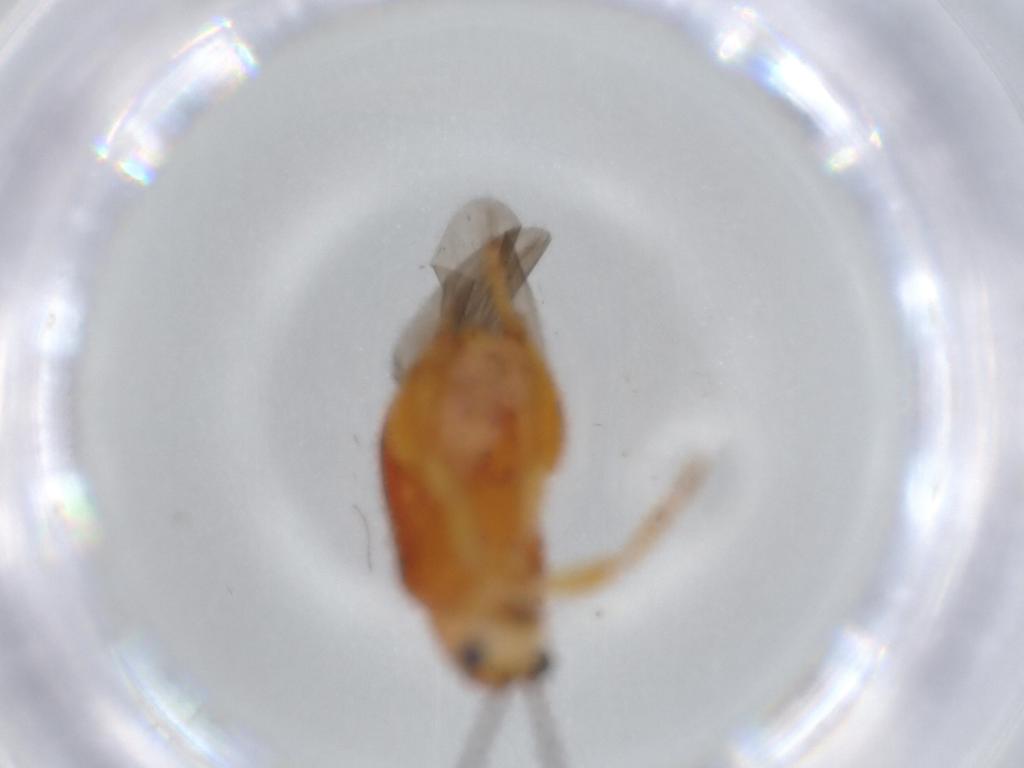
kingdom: Animalia
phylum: Arthropoda
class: Insecta
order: Coleoptera
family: Chrysomelidae
